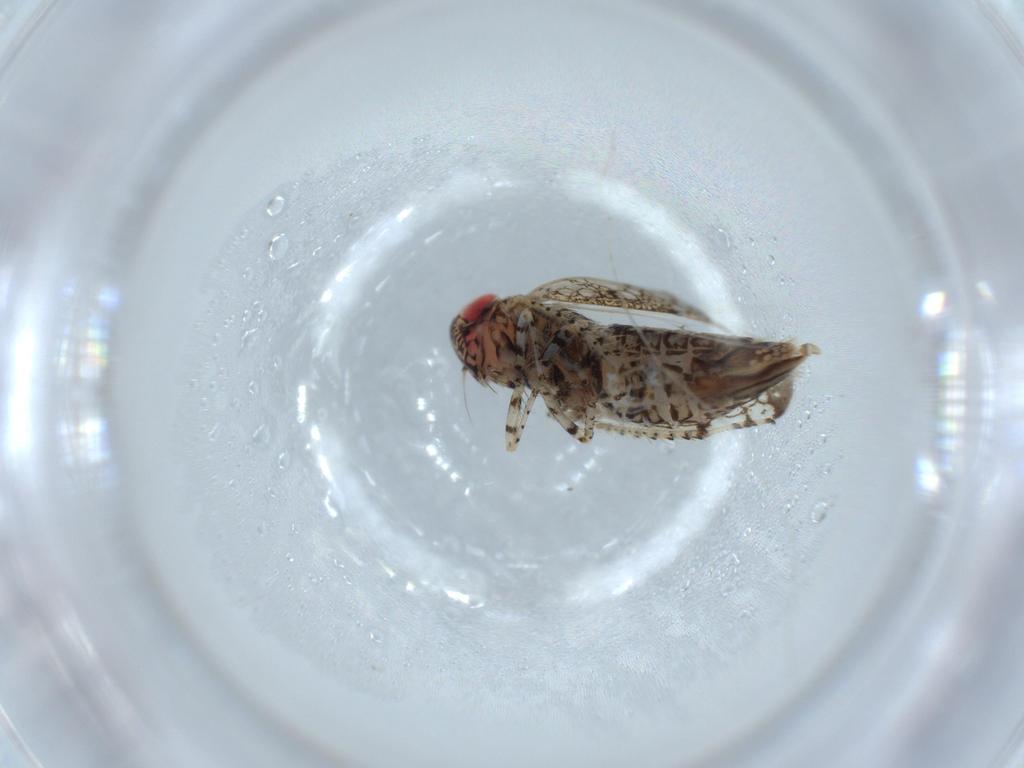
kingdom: Animalia
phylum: Arthropoda
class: Insecta
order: Hemiptera
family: Cicadellidae
